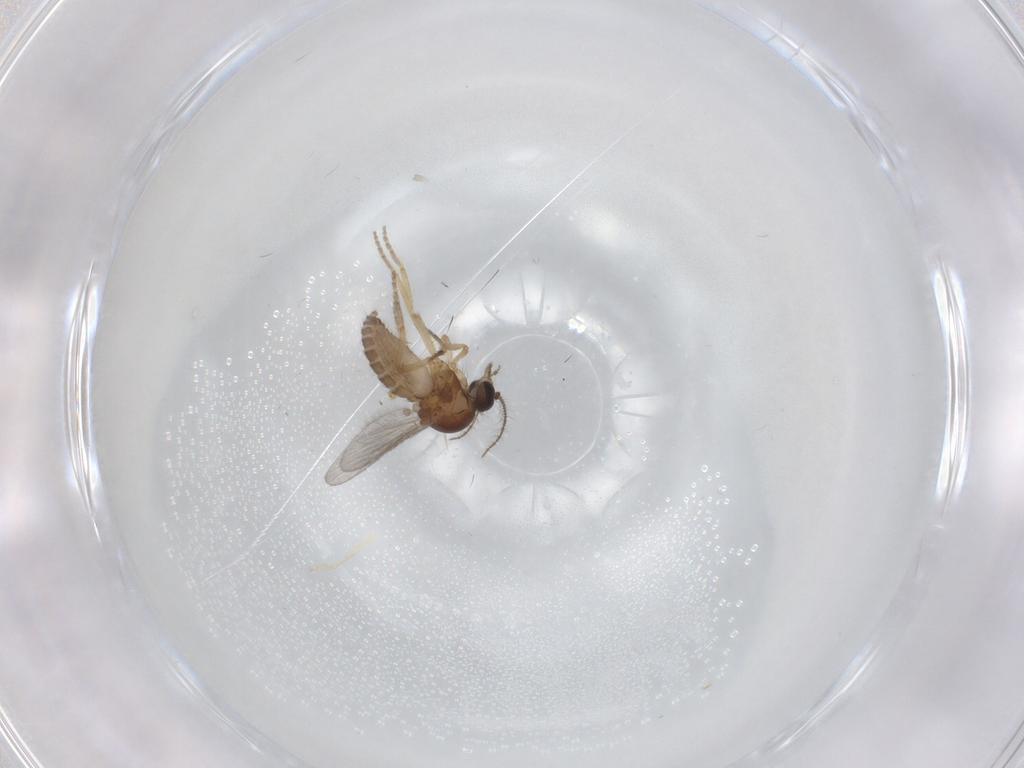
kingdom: Animalia
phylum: Arthropoda
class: Insecta
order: Diptera
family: Ceratopogonidae
